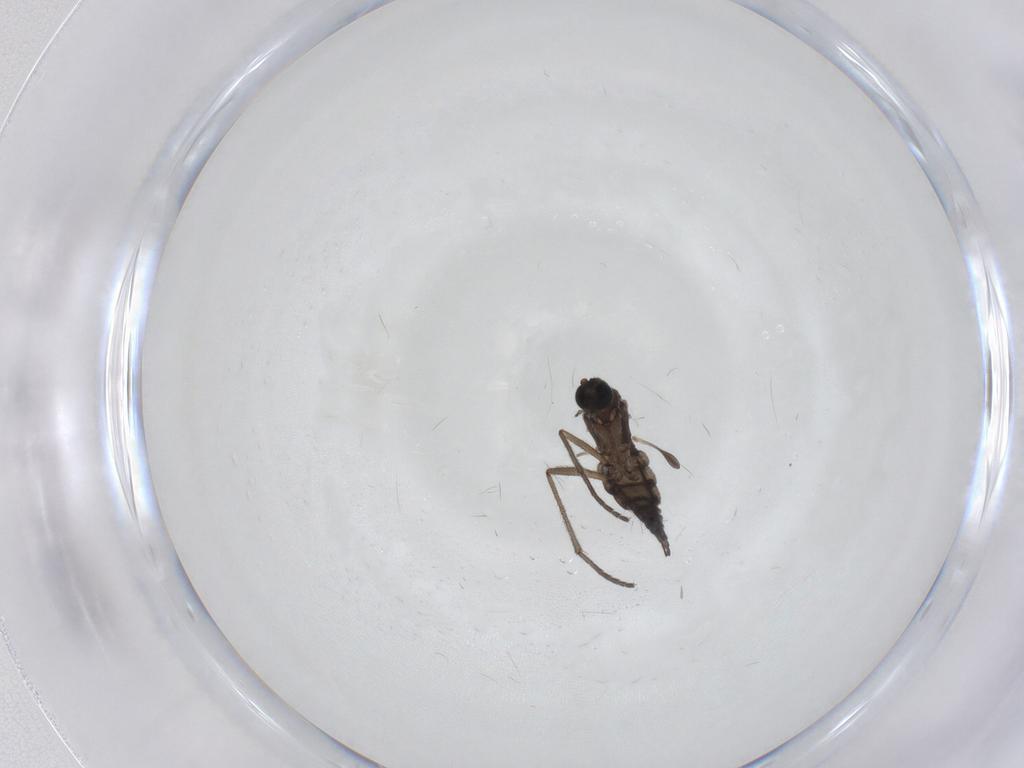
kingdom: Animalia
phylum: Arthropoda
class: Insecta
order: Diptera
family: Sciaridae
